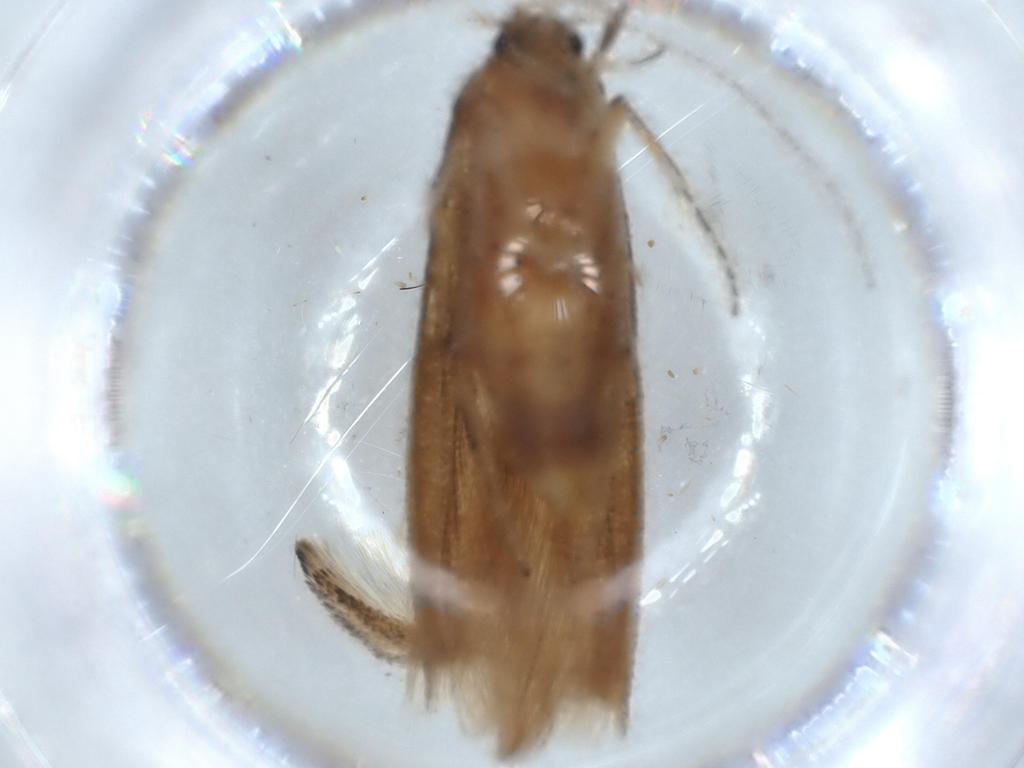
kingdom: Animalia
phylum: Arthropoda
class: Insecta
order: Lepidoptera
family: Stathmopodidae
